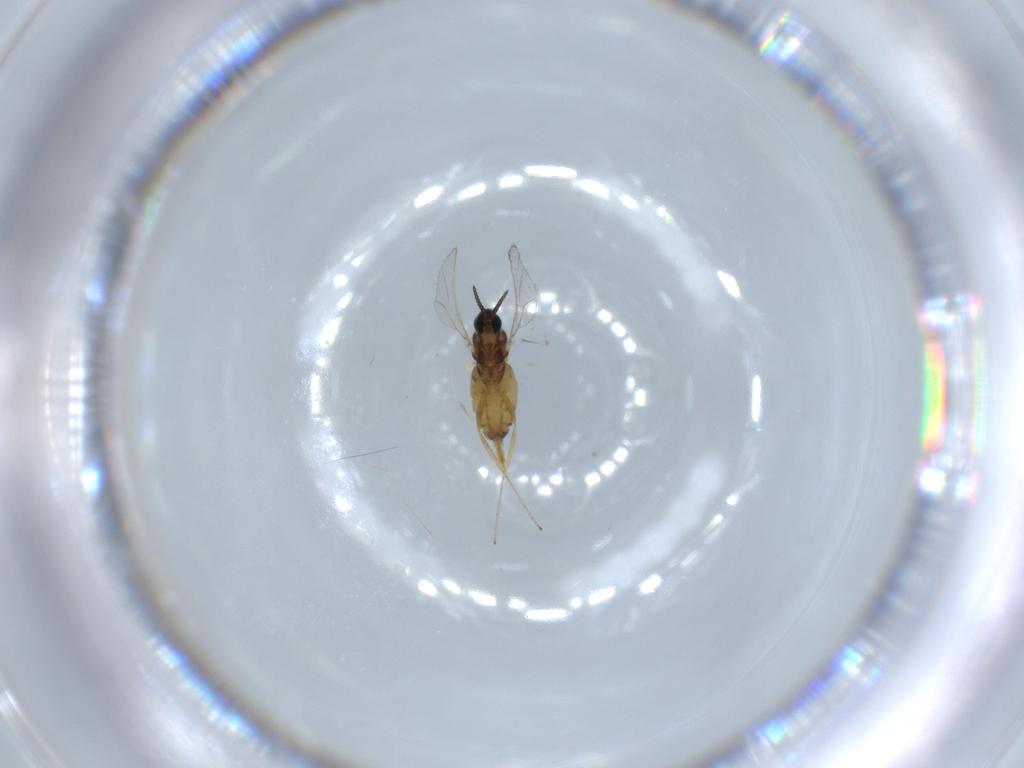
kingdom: Animalia
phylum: Arthropoda
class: Insecta
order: Diptera
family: Cecidomyiidae
